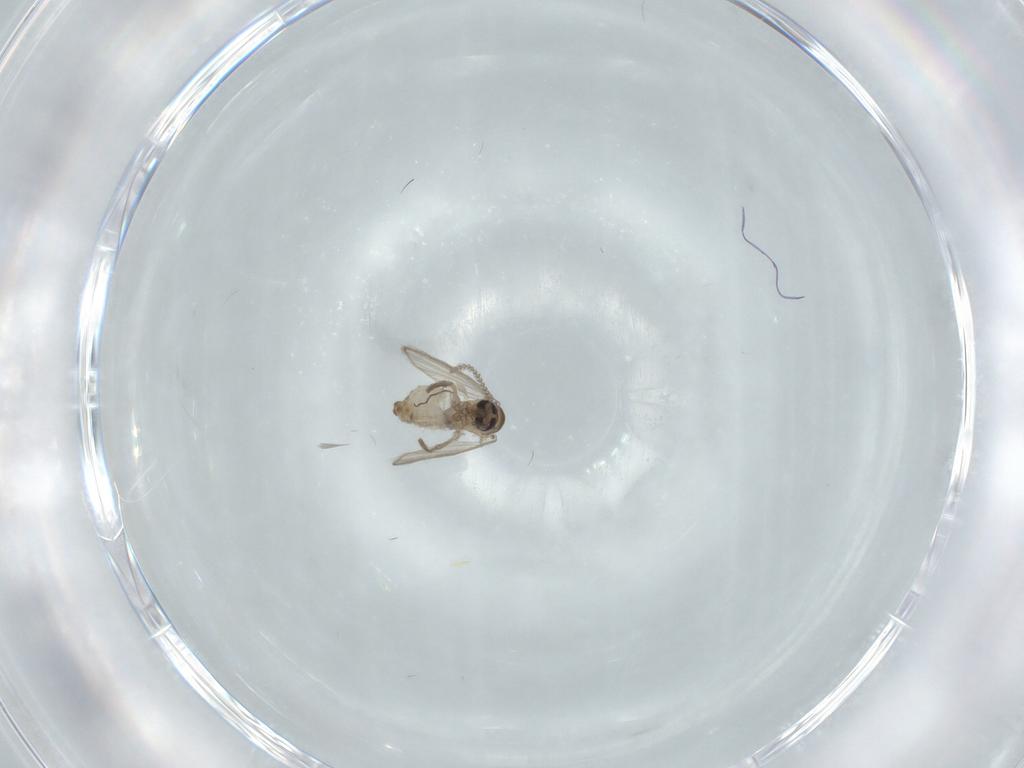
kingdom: Animalia
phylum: Arthropoda
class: Insecta
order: Diptera
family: Psychodidae
